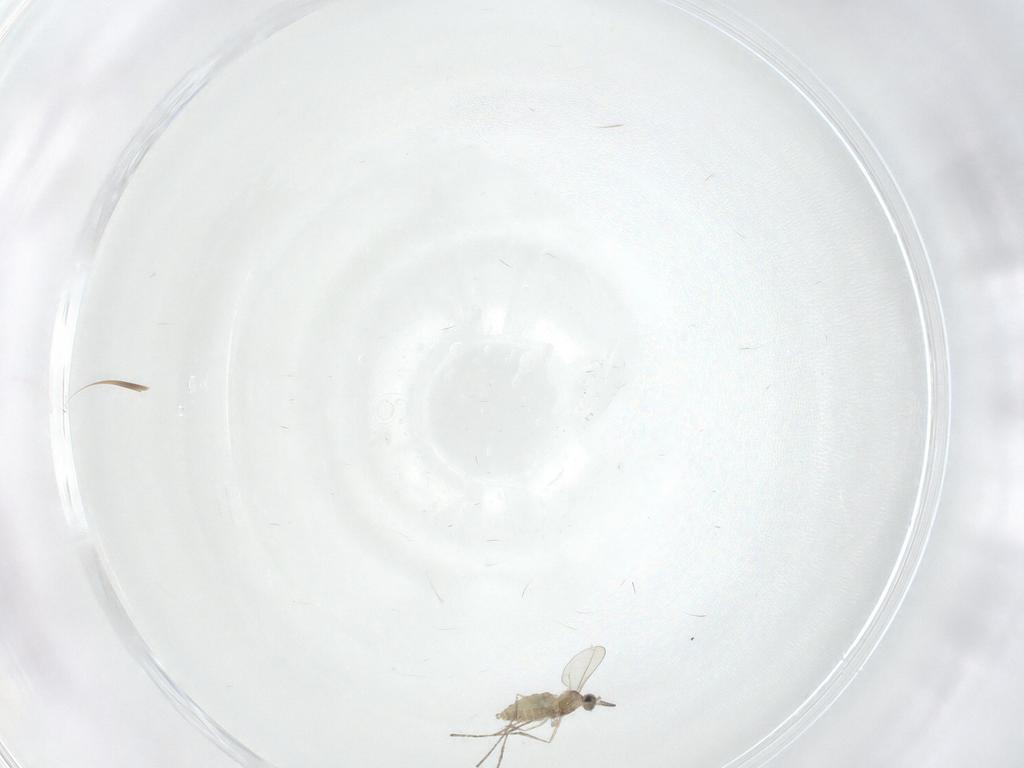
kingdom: Animalia
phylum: Arthropoda
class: Insecta
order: Diptera
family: Cecidomyiidae
